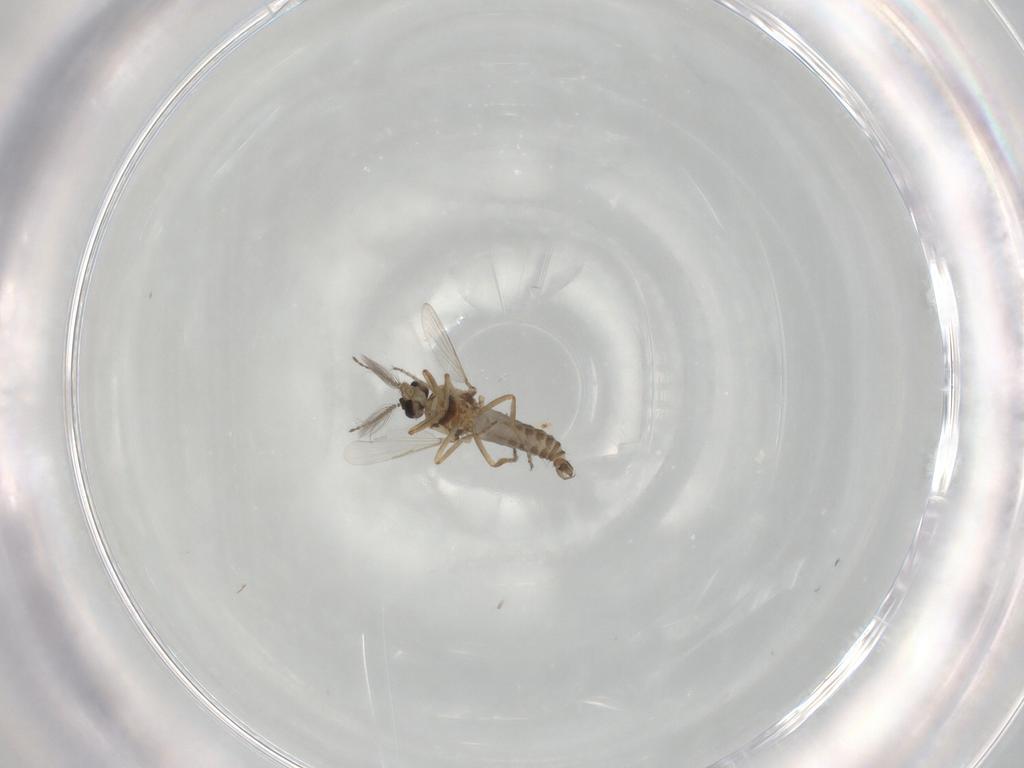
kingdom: Animalia
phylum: Arthropoda
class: Insecta
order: Diptera
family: Ceratopogonidae
